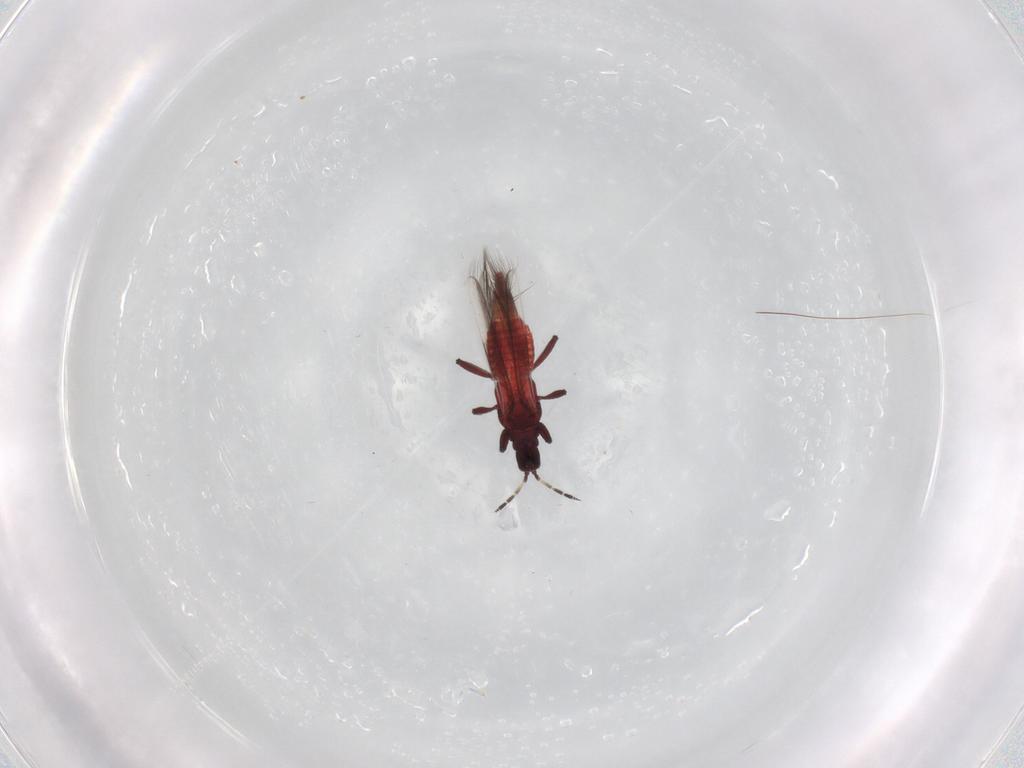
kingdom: Animalia
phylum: Arthropoda
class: Insecta
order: Thysanoptera
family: Aeolothripidae
